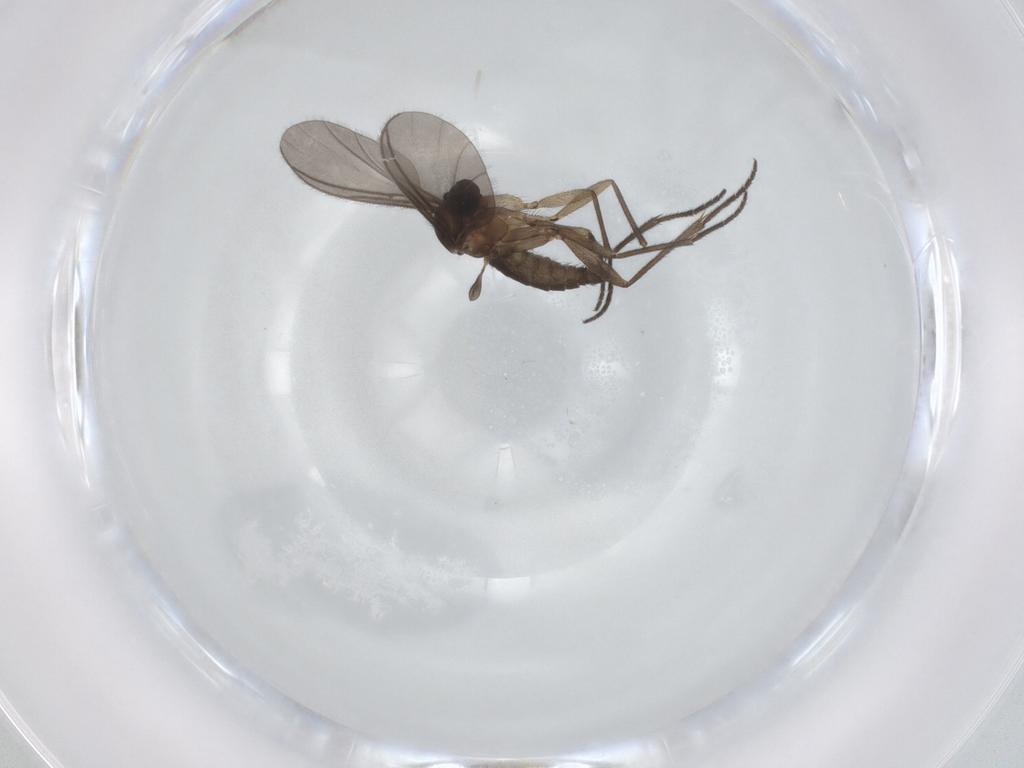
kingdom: Animalia
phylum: Arthropoda
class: Insecta
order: Diptera
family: Sciaridae
